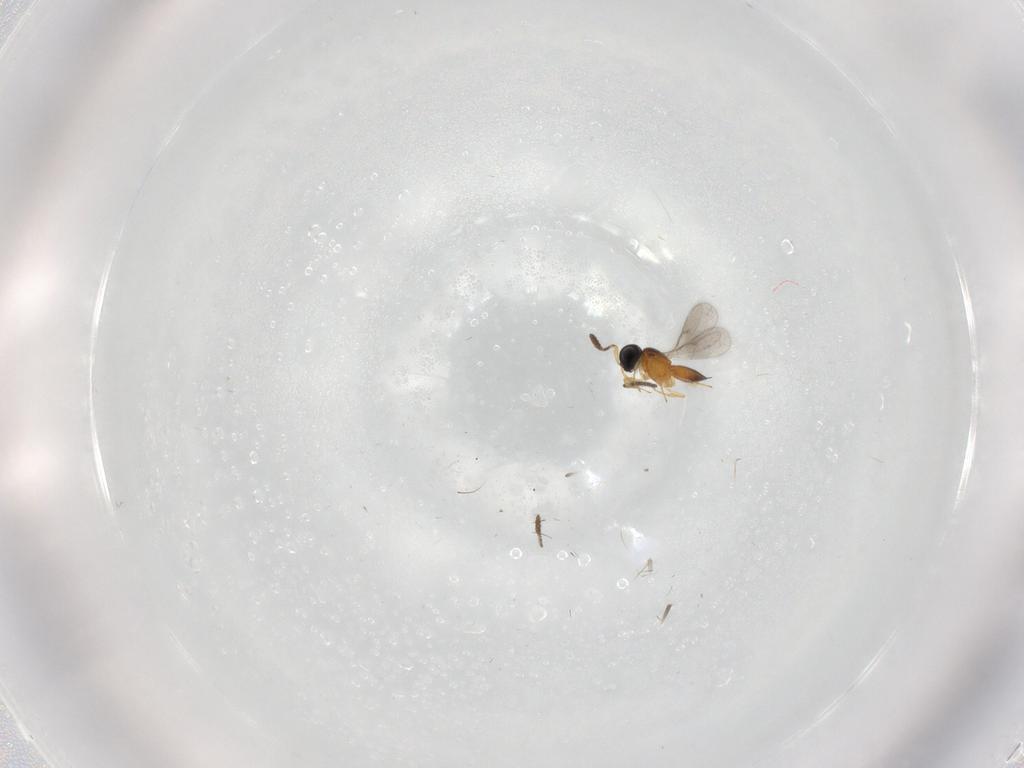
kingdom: Animalia
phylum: Arthropoda
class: Insecta
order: Hymenoptera
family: Scelionidae
